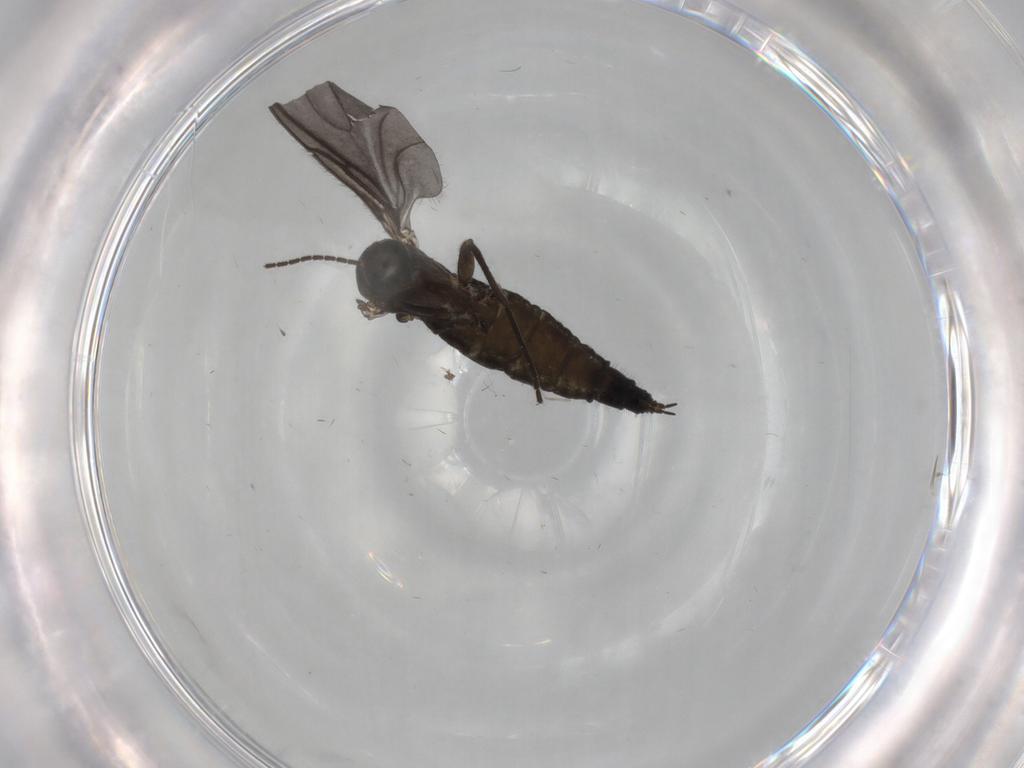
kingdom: Animalia
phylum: Arthropoda
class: Insecta
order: Diptera
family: Sciaridae
